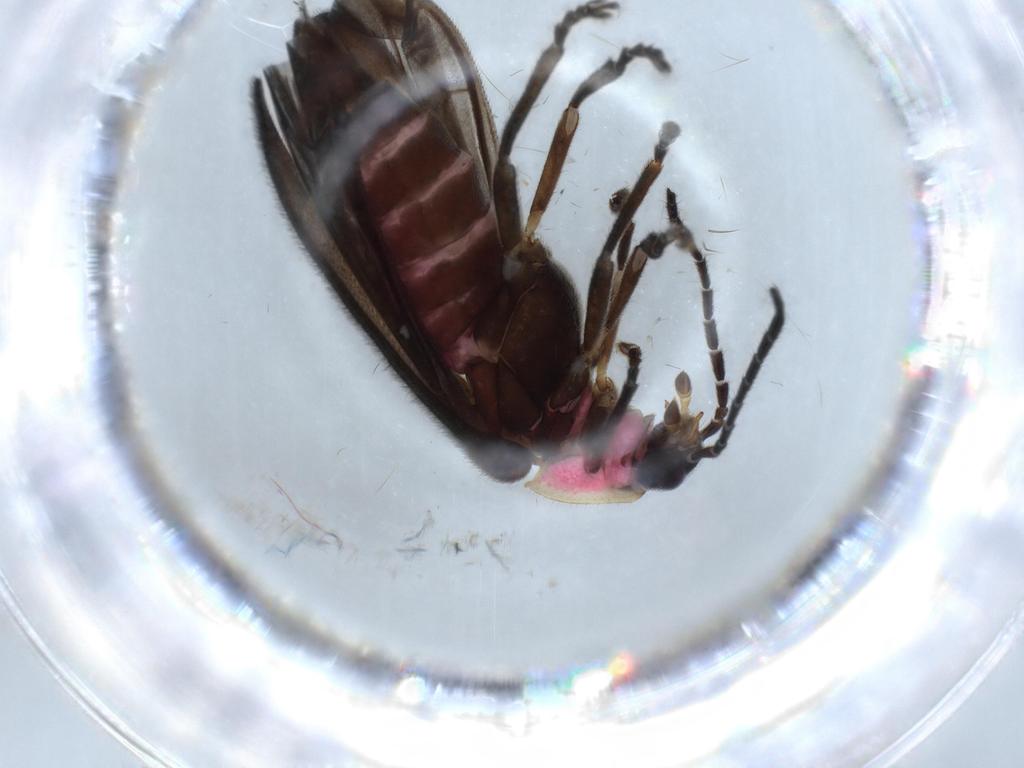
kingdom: Animalia
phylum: Arthropoda
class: Insecta
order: Coleoptera
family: Lampyridae
